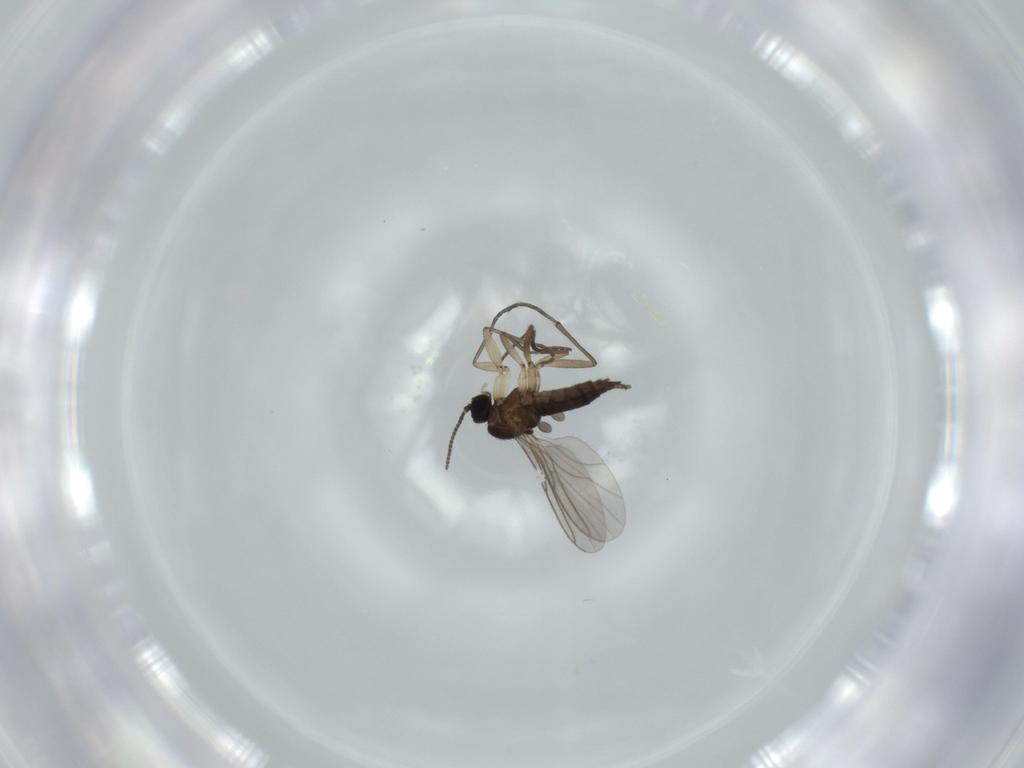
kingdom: Animalia
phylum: Arthropoda
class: Insecta
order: Diptera
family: Sciaridae
